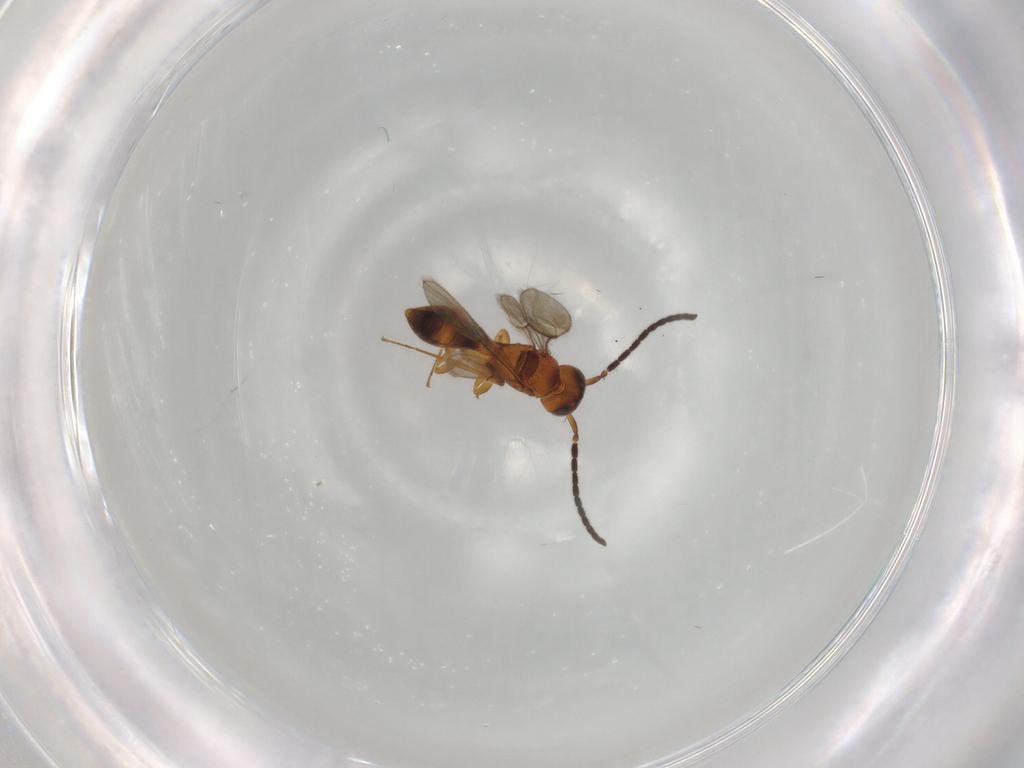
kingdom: Animalia
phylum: Arthropoda
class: Insecta
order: Hymenoptera
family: Scelionidae
